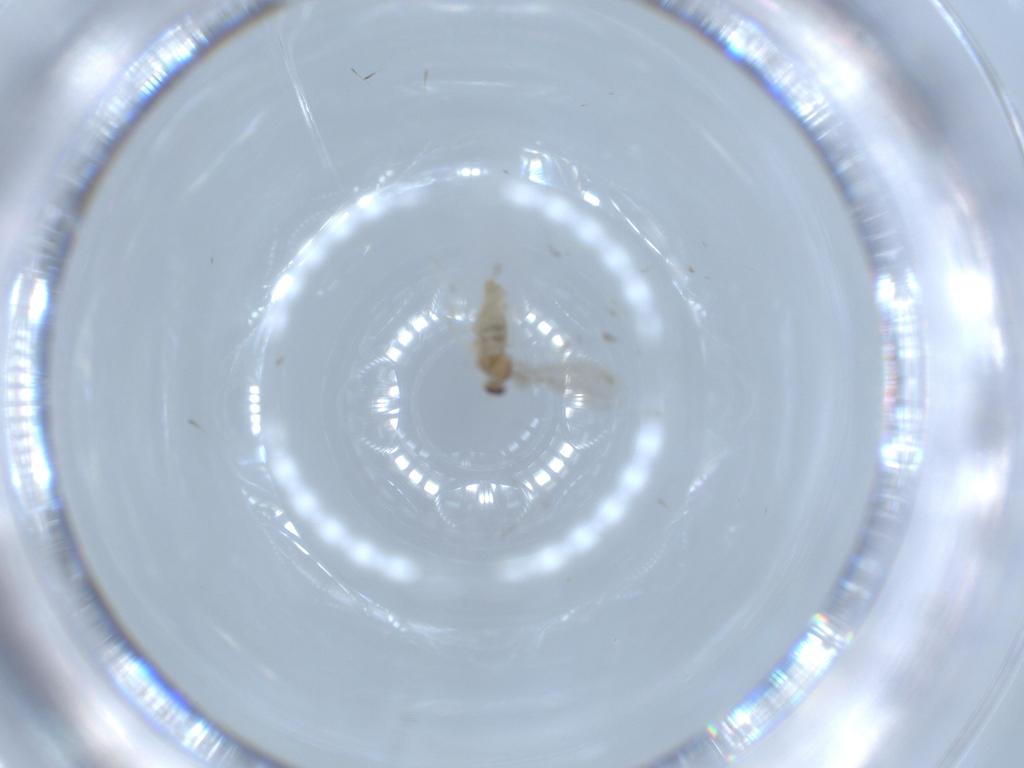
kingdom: Animalia
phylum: Arthropoda
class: Insecta
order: Diptera
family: Cecidomyiidae
